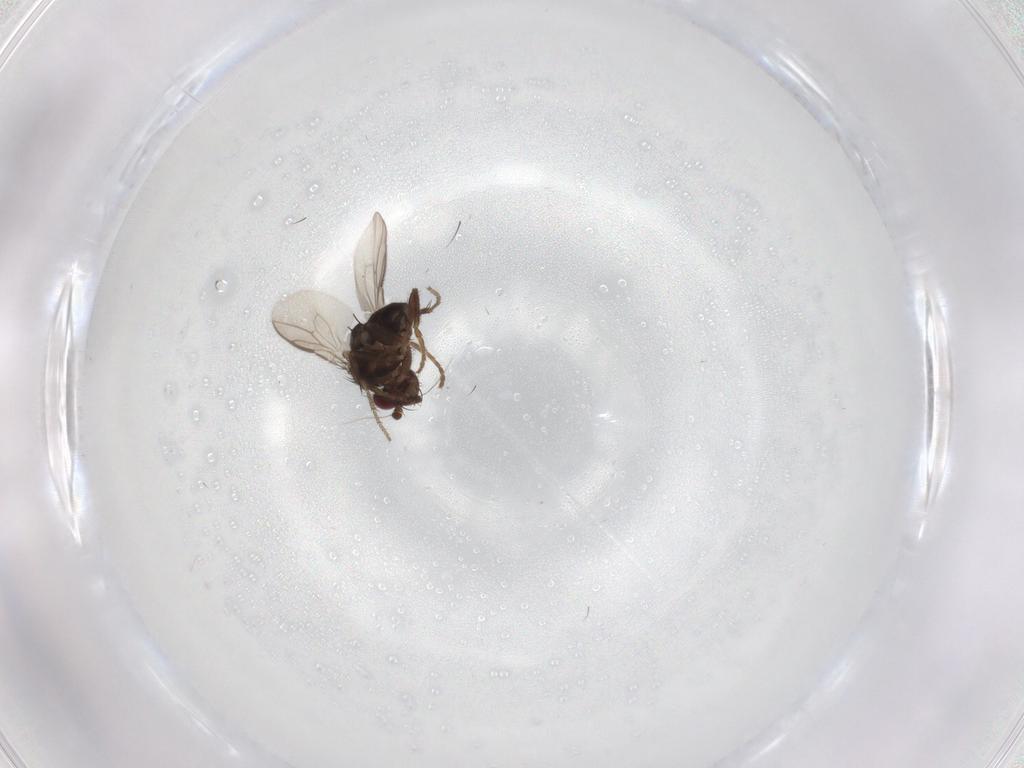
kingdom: Animalia
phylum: Arthropoda
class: Insecta
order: Diptera
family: Sphaeroceridae
